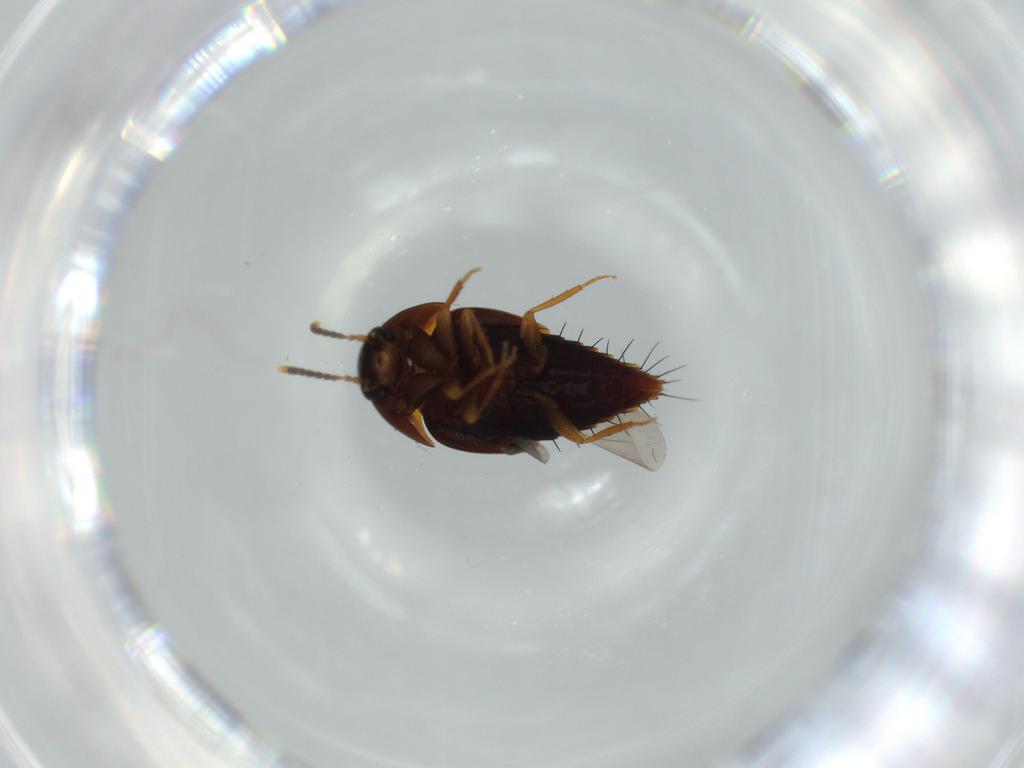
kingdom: Animalia
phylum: Arthropoda
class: Insecta
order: Coleoptera
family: Staphylinidae
